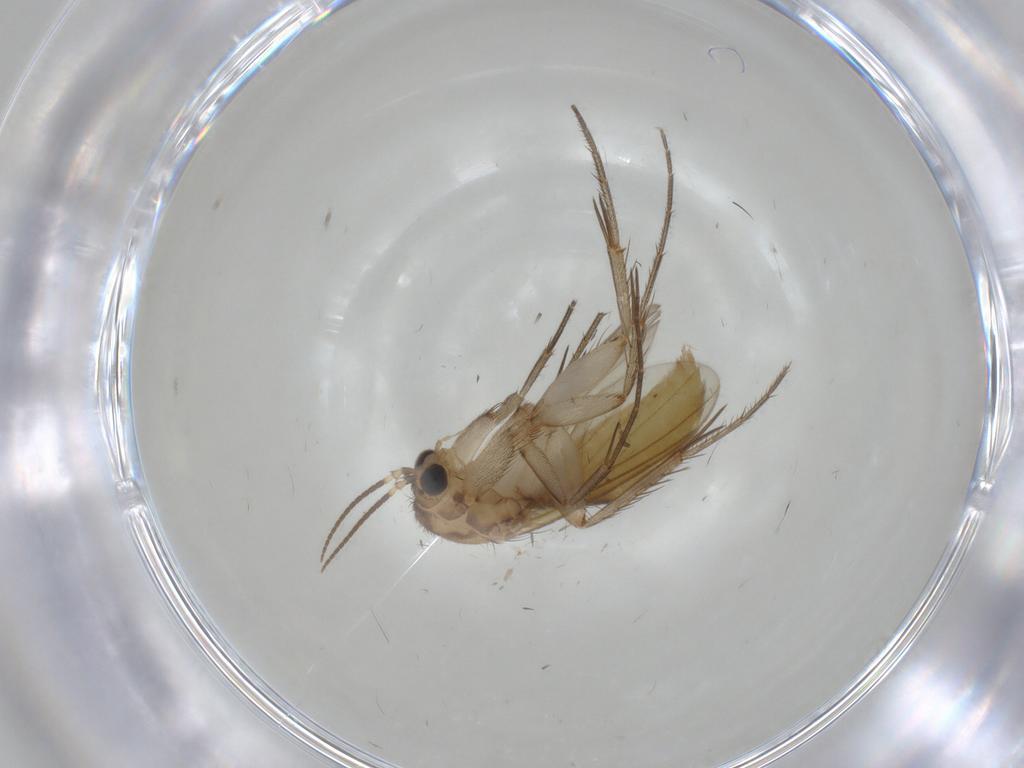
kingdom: Animalia
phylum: Arthropoda
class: Insecta
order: Diptera
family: Mycetophilidae
